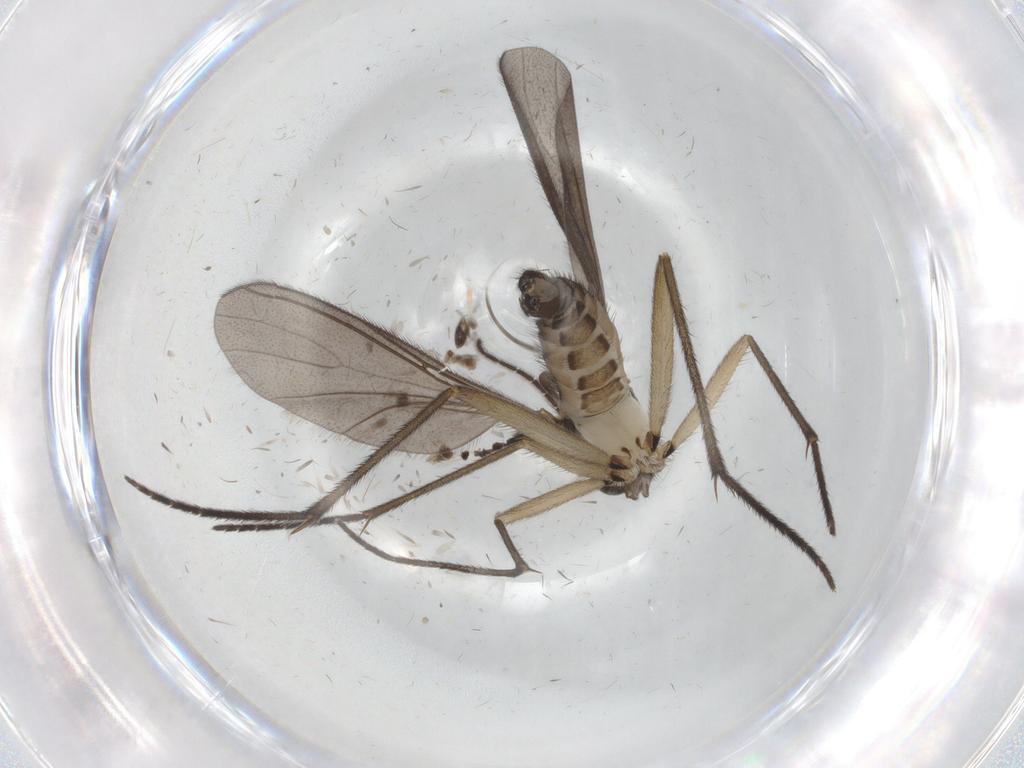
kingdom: Animalia
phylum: Arthropoda
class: Insecta
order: Diptera
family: Sciaridae
